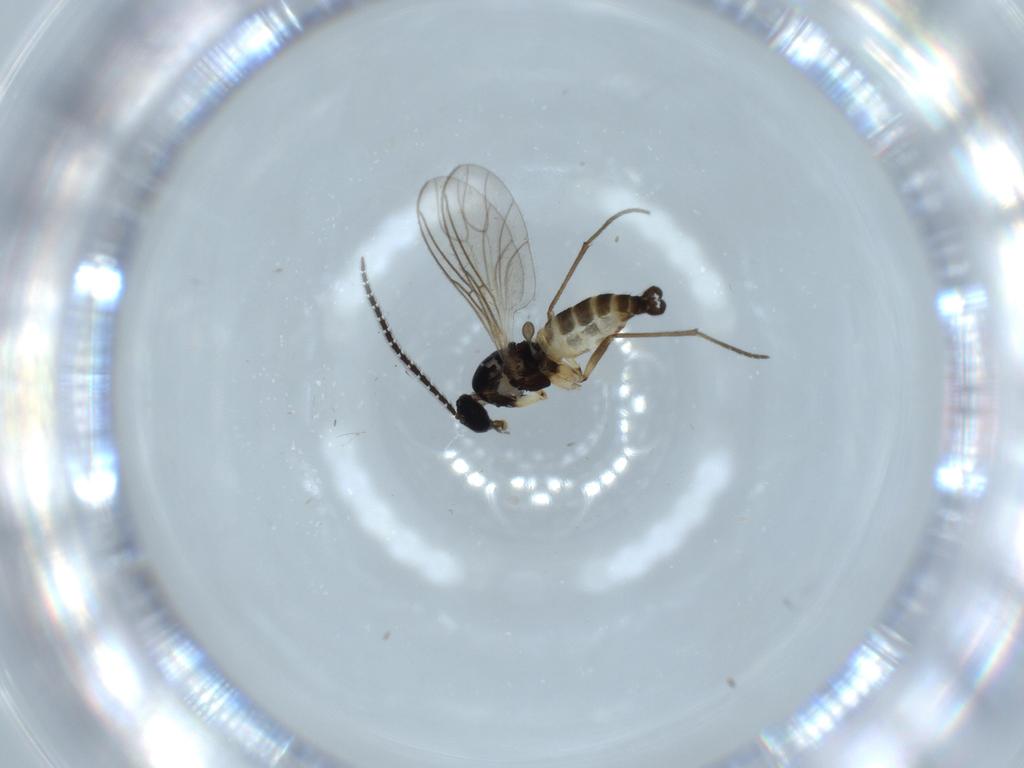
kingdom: Animalia
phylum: Arthropoda
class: Insecta
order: Diptera
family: Sciaridae
